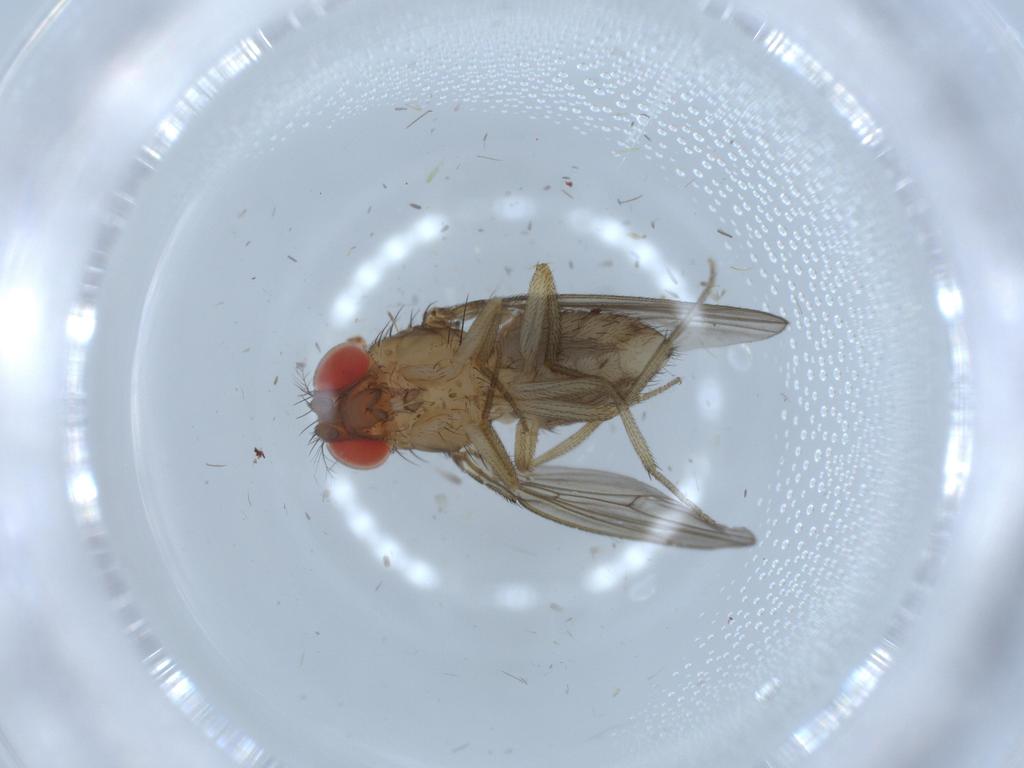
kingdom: Animalia
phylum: Arthropoda
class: Insecta
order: Diptera
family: Drosophilidae
